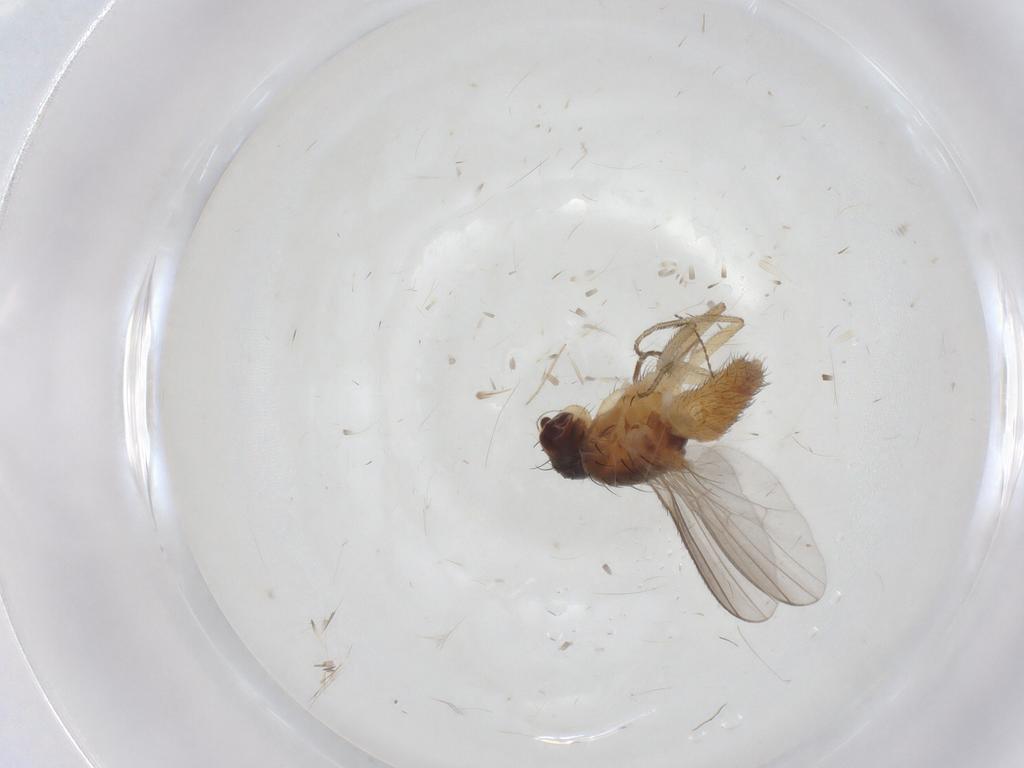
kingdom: Animalia
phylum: Arthropoda
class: Insecta
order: Diptera
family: Heleomyzidae
